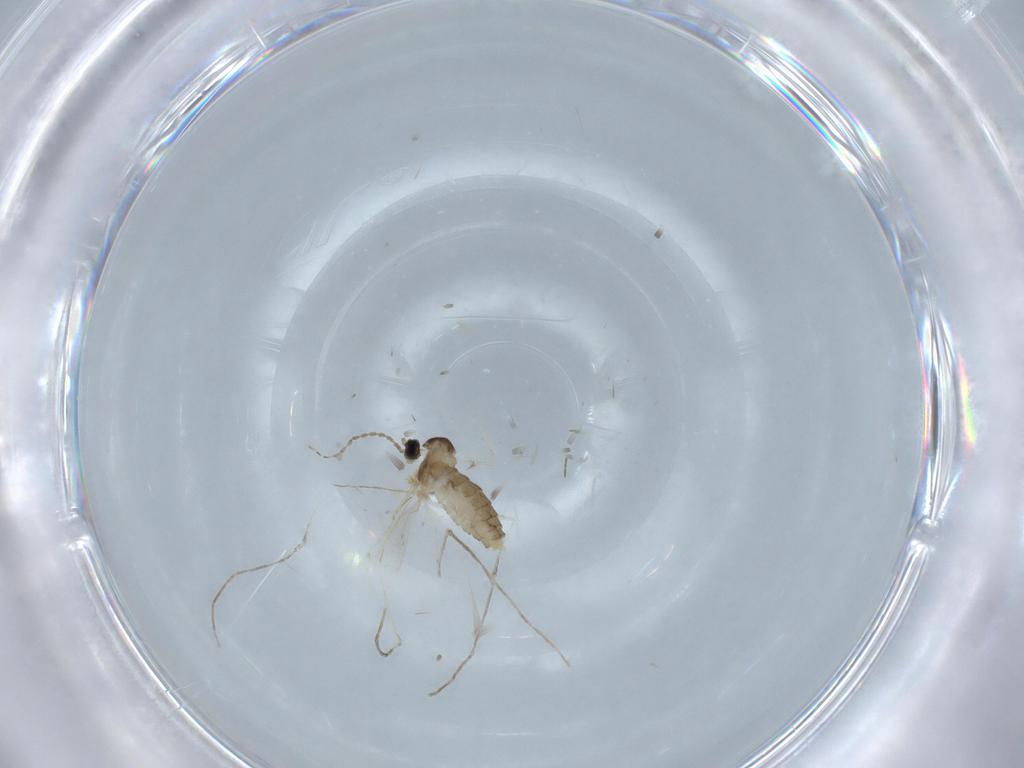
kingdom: Animalia
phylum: Arthropoda
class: Insecta
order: Diptera
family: Cecidomyiidae
